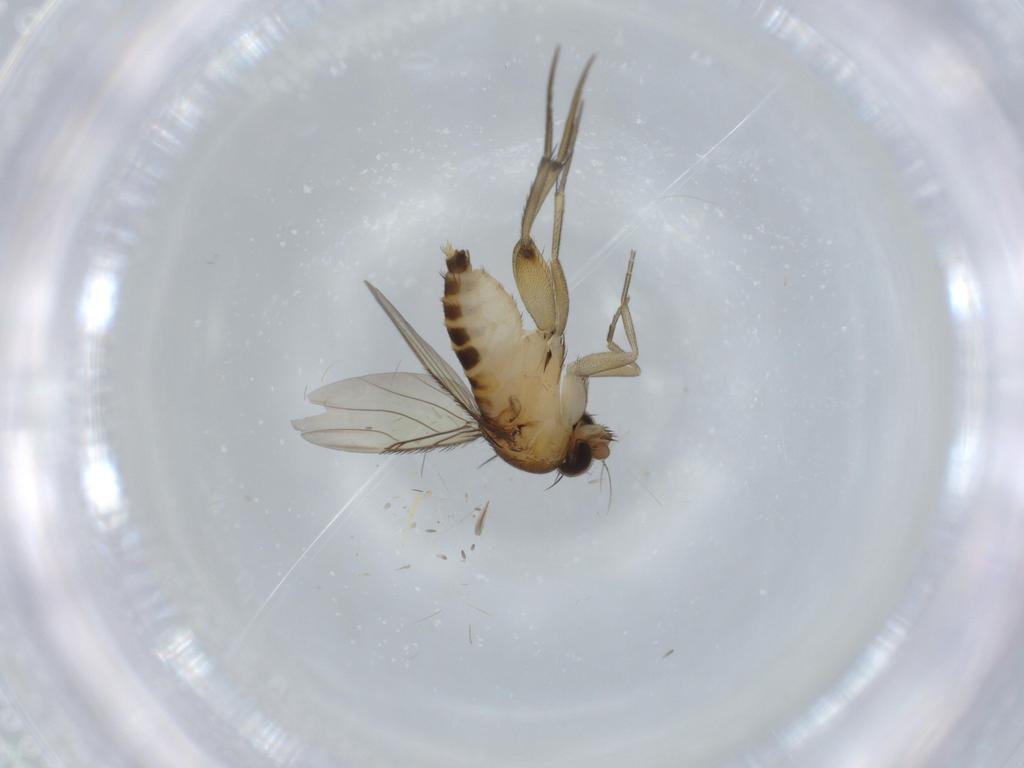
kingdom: Animalia
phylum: Arthropoda
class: Insecta
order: Diptera
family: Phoridae
